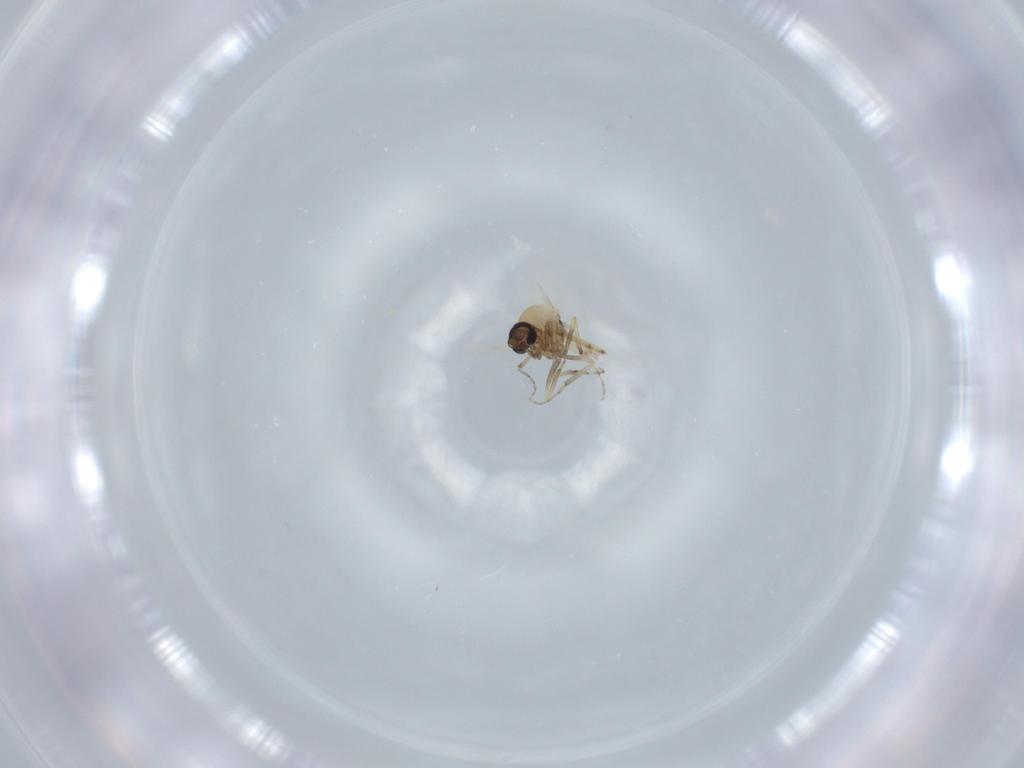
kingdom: Animalia
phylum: Arthropoda
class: Insecta
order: Diptera
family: Ceratopogonidae
